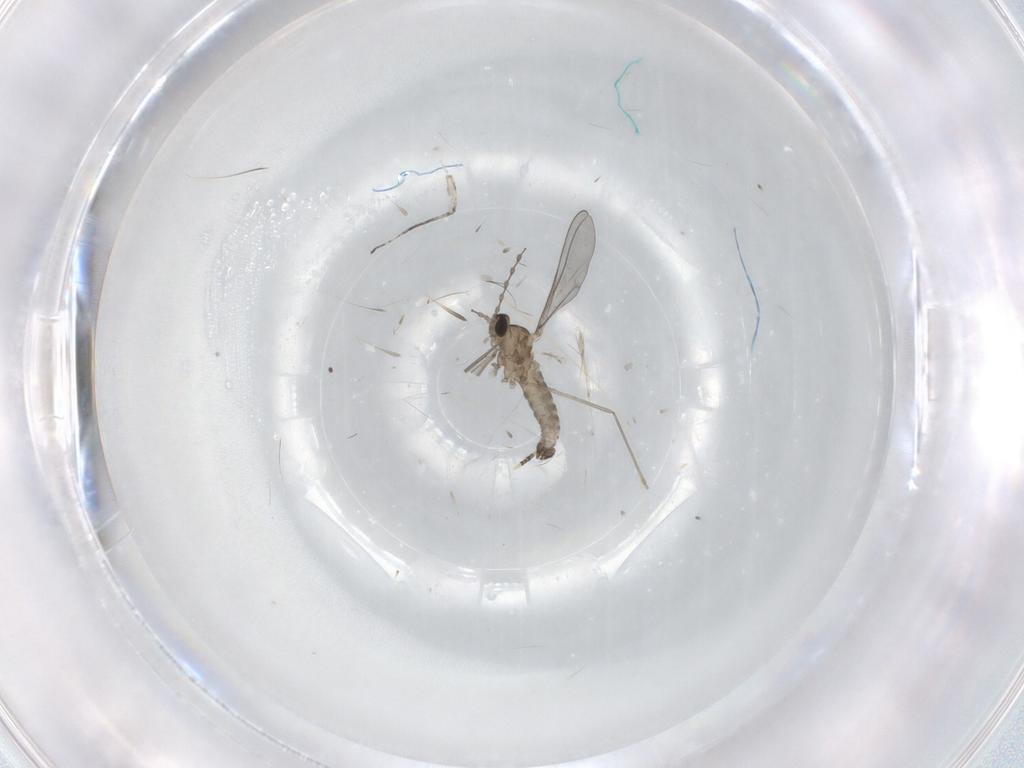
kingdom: Animalia
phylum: Arthropoda
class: Insecta
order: Diptera
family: Mycetophilidae
